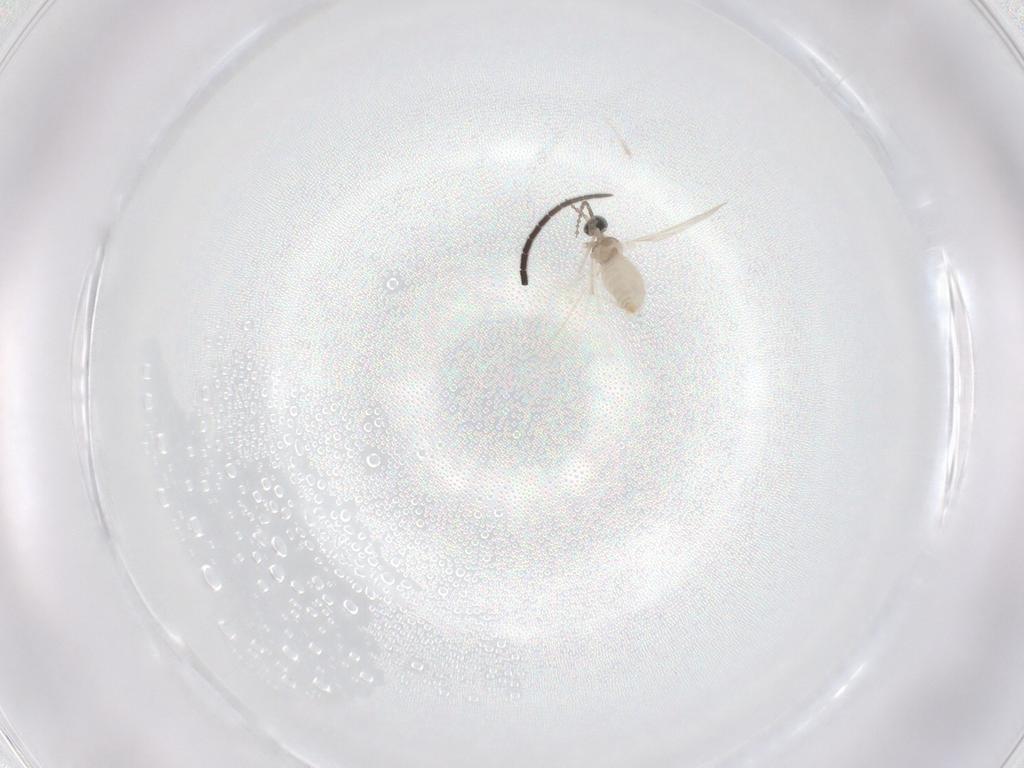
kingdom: Animalia
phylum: Arthropoda
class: Insecta
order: Diptera
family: Cecidomyiidae
